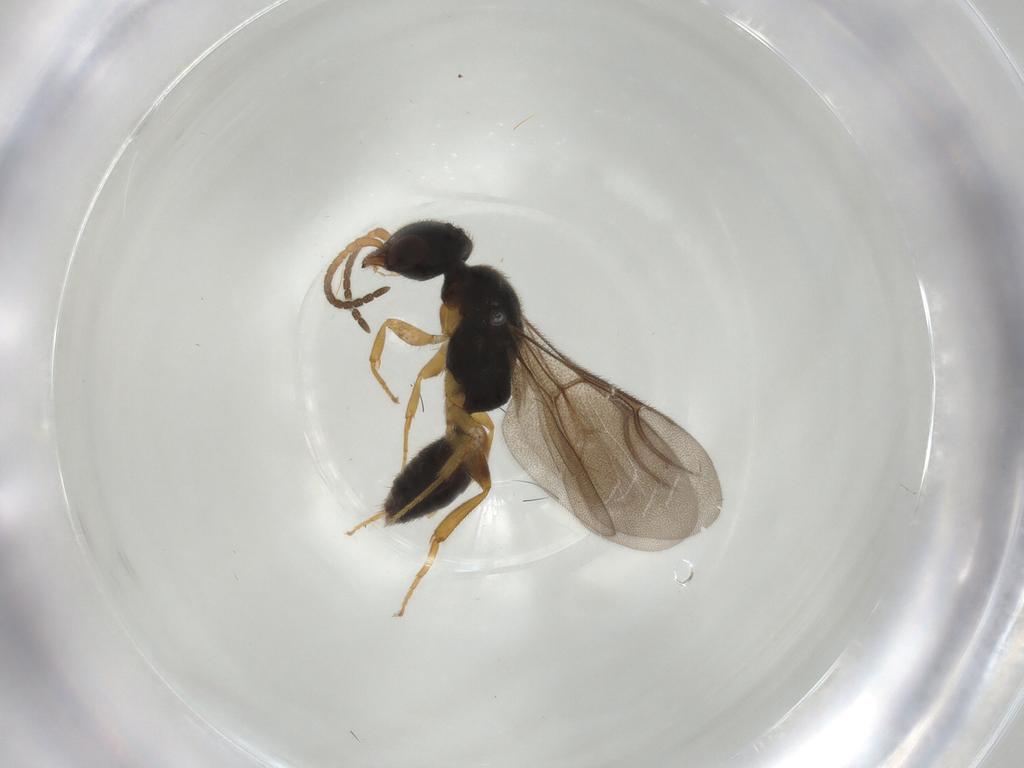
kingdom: Animalia
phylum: Arthropoda
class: Insecta
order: Hymenoptera
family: Bethylidae
